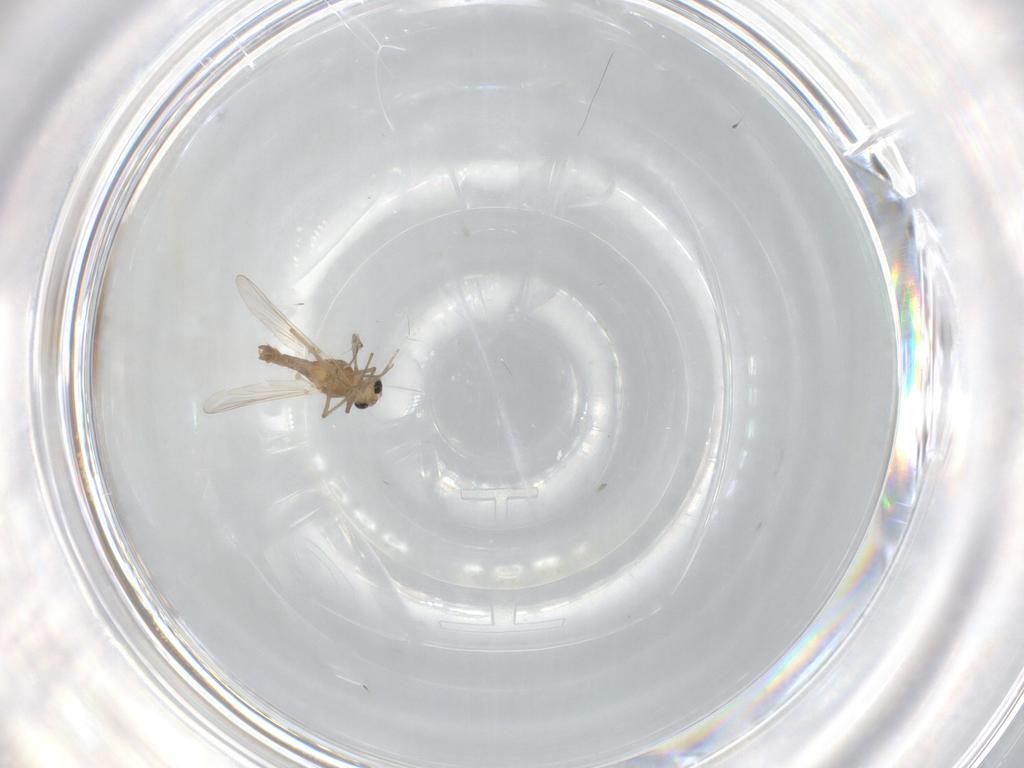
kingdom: Animalia
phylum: Arthropoda
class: Insecta
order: Diptera
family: Chironomidae
